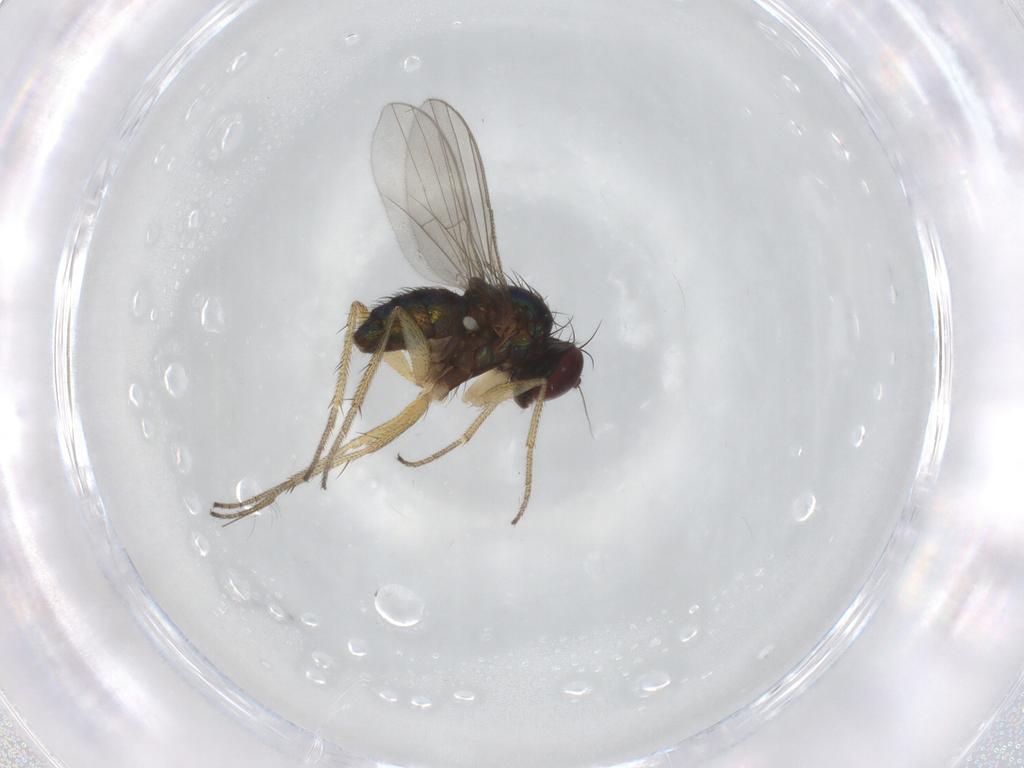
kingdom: Animalia
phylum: Arthropoda
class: Insecta
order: Diptera
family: Dolichopodidae
